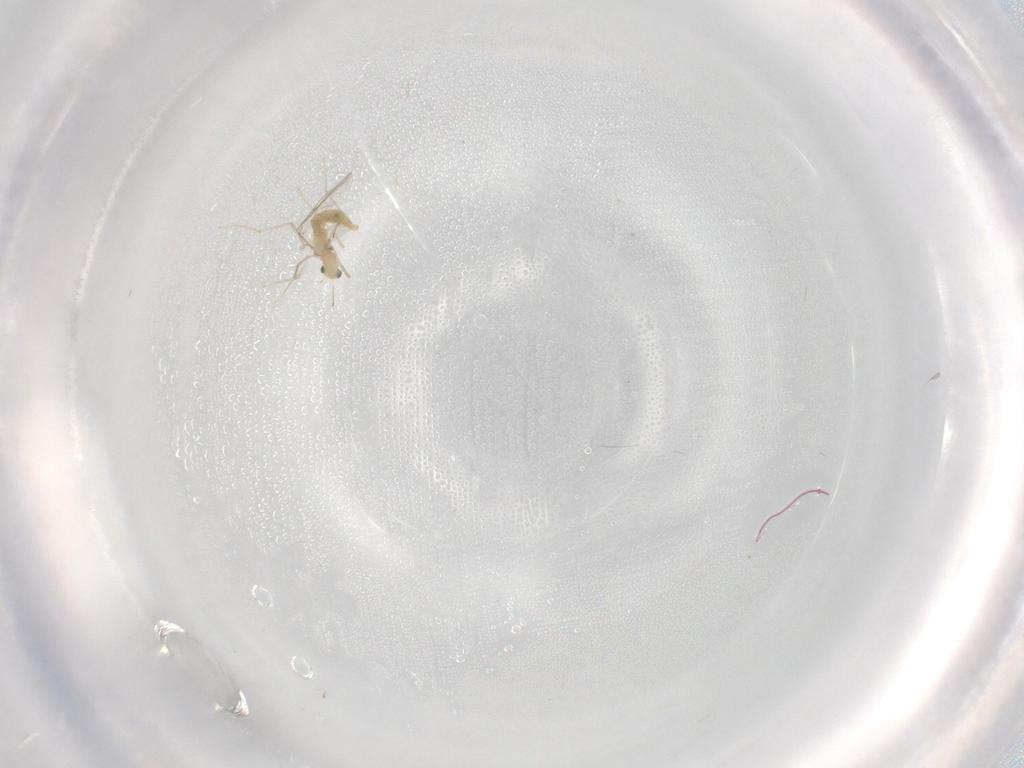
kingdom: Animalia
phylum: Arthropoda
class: Insecta
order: Diptera
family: Chironomidae
